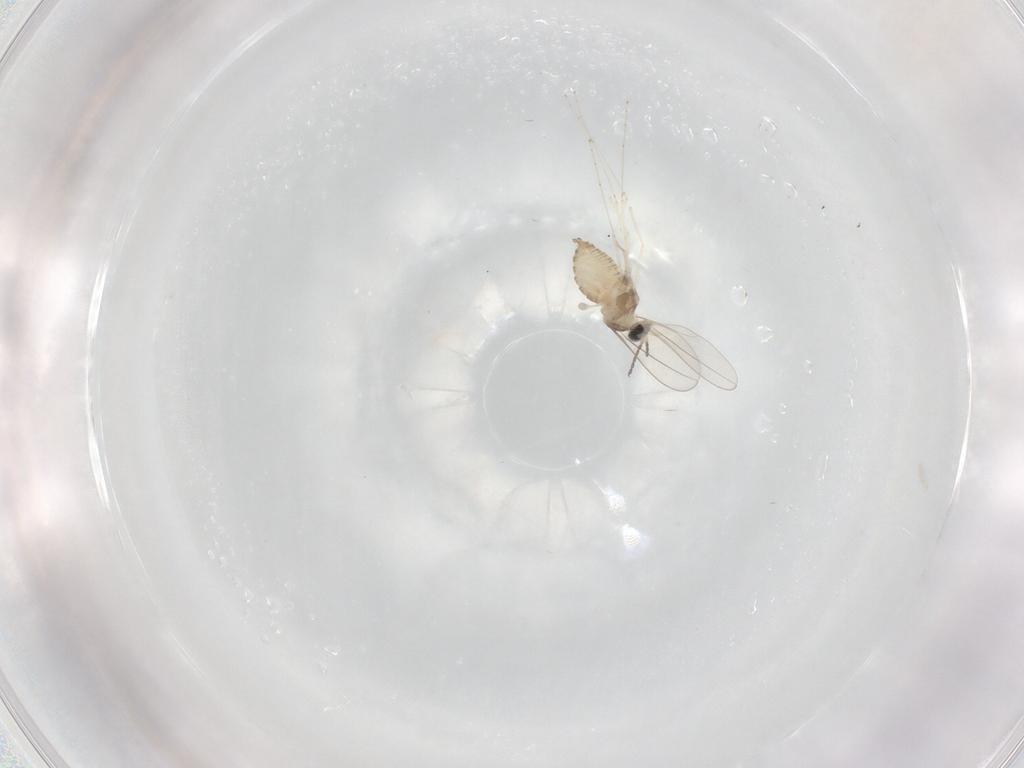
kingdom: Animalia
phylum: Arthropoda
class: Insecta
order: Diptera
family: Cecidomyiidae
